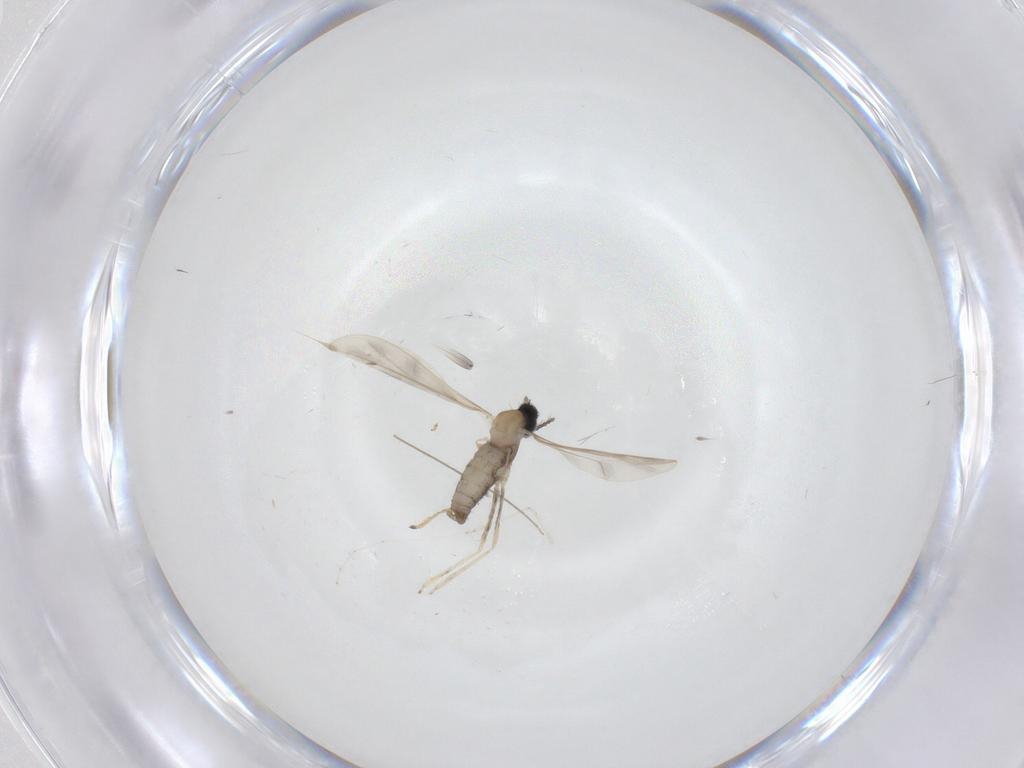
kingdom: Animalia
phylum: Arthropoda
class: Insecta
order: Diptera
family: Cecidomyiidae
